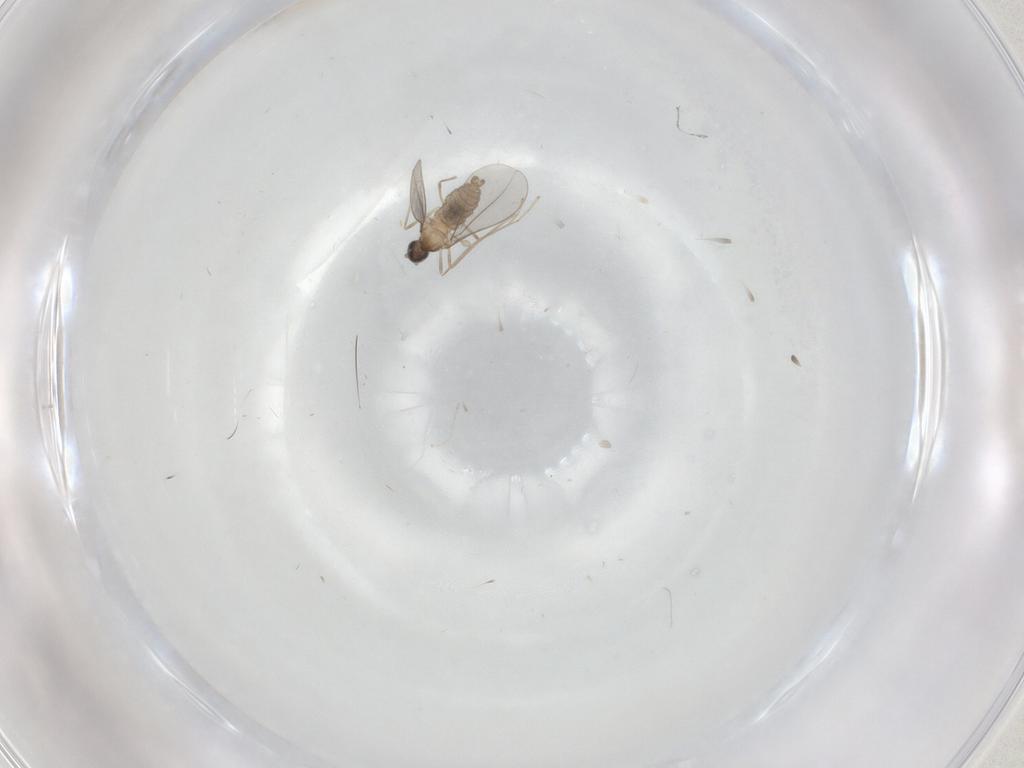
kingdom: Animalia
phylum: Arthropoda
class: Insecta
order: Diptera
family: Cecidomyiidae
